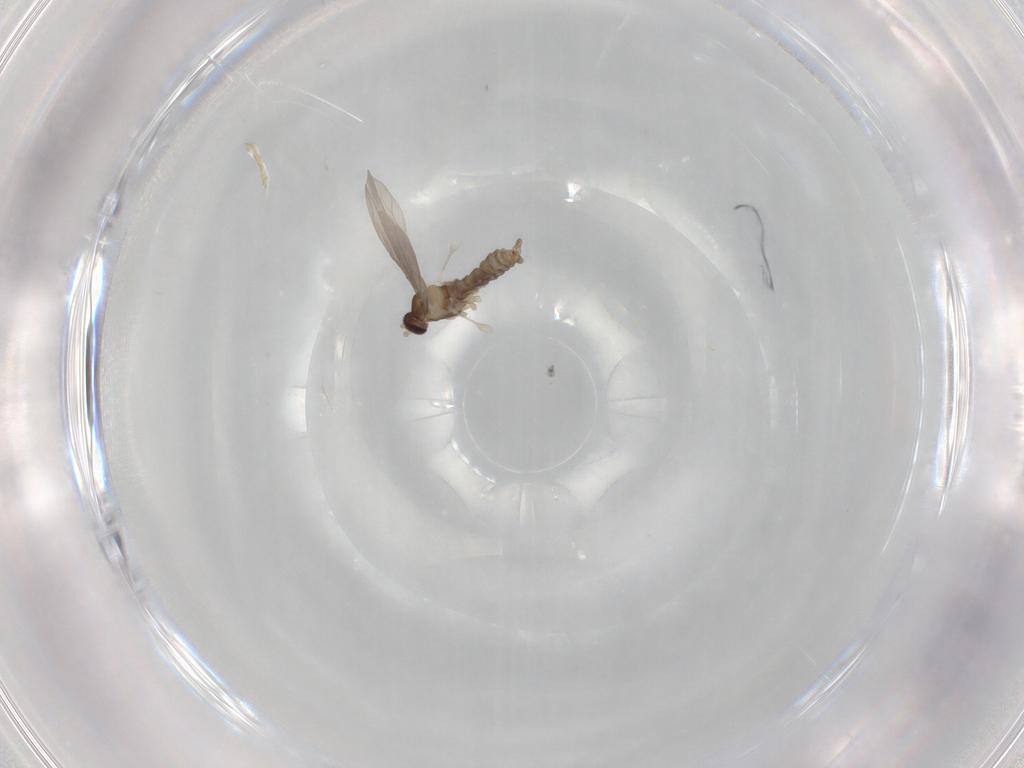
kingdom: Animalia
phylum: Arthropoda
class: Insecta
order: Diptera
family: Cecidomyiidae
